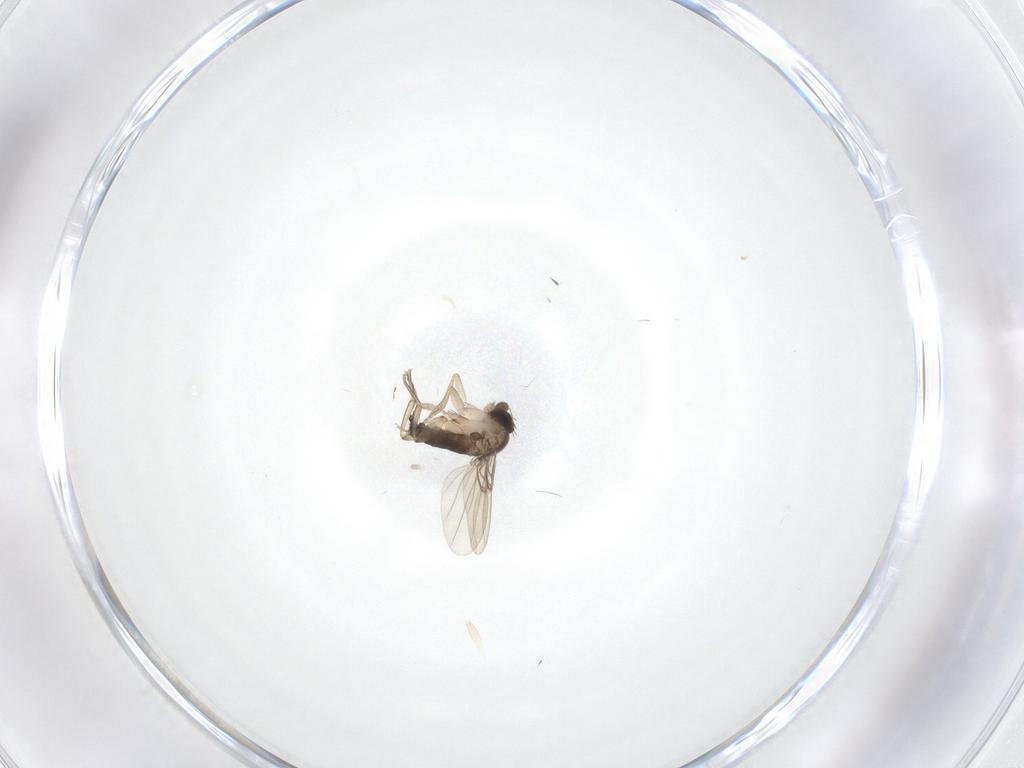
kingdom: Animalia
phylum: Arthropoda
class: Insecta
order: Diptera
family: Phoridae
